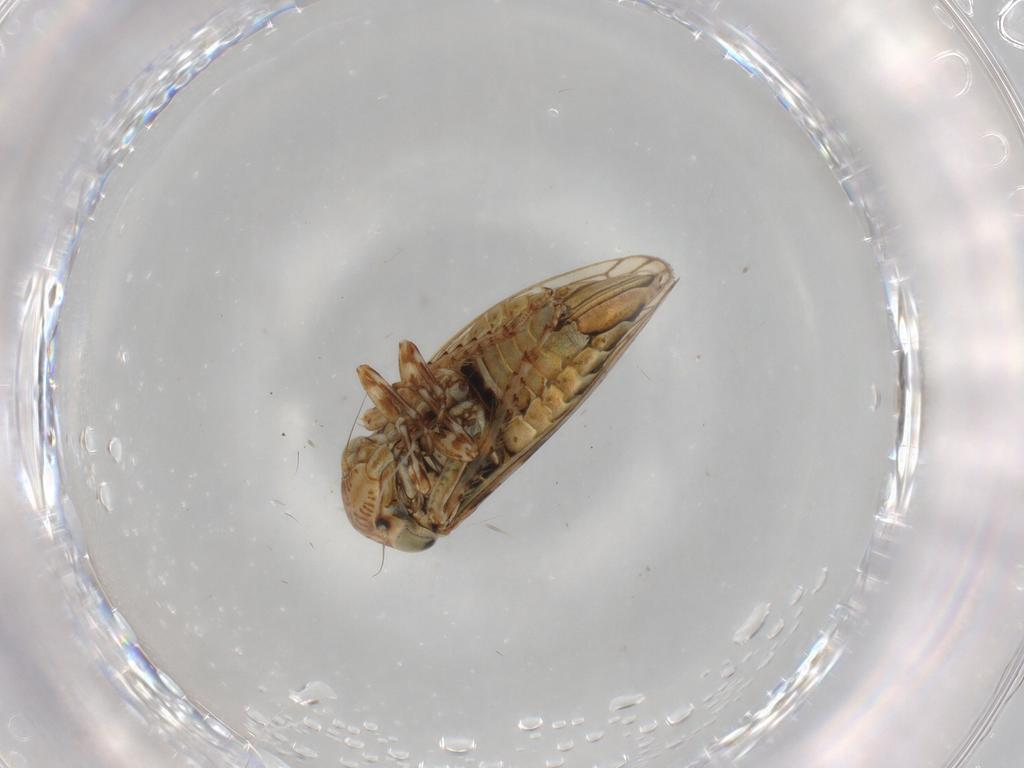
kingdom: Animalia
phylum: Arthropoda
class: Insecta
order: Hemiptera
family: Cicadellidae
